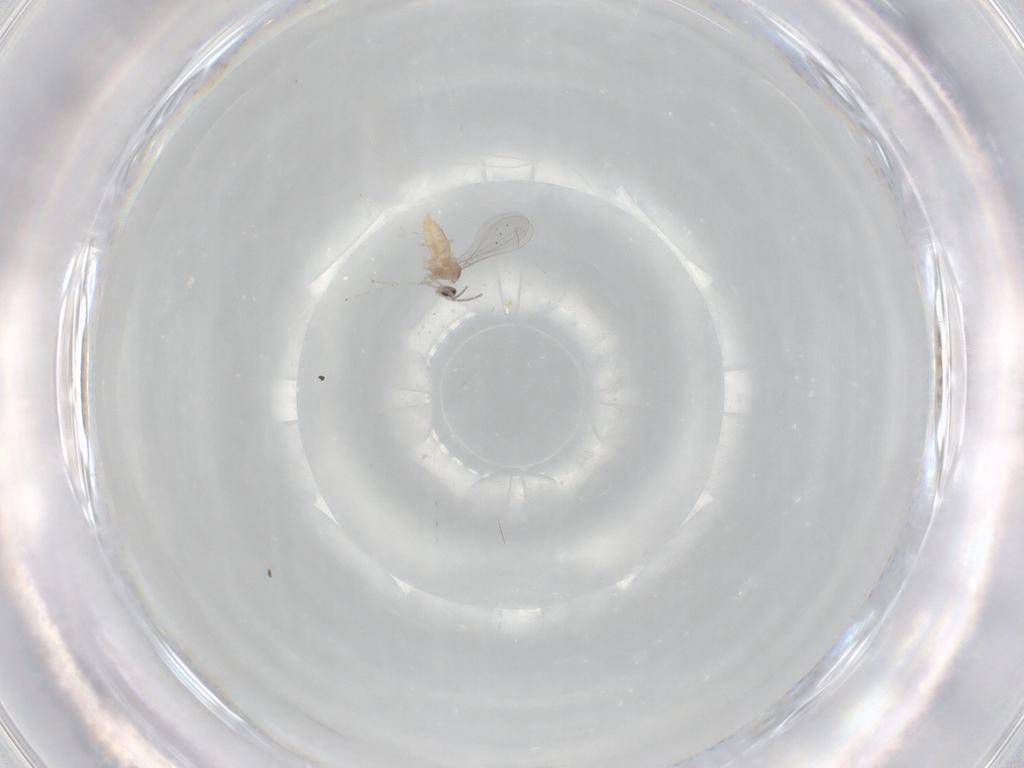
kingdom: Animalia
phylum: Arthropoda
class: Insecta
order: Diptera
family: Cecidomyiidae
